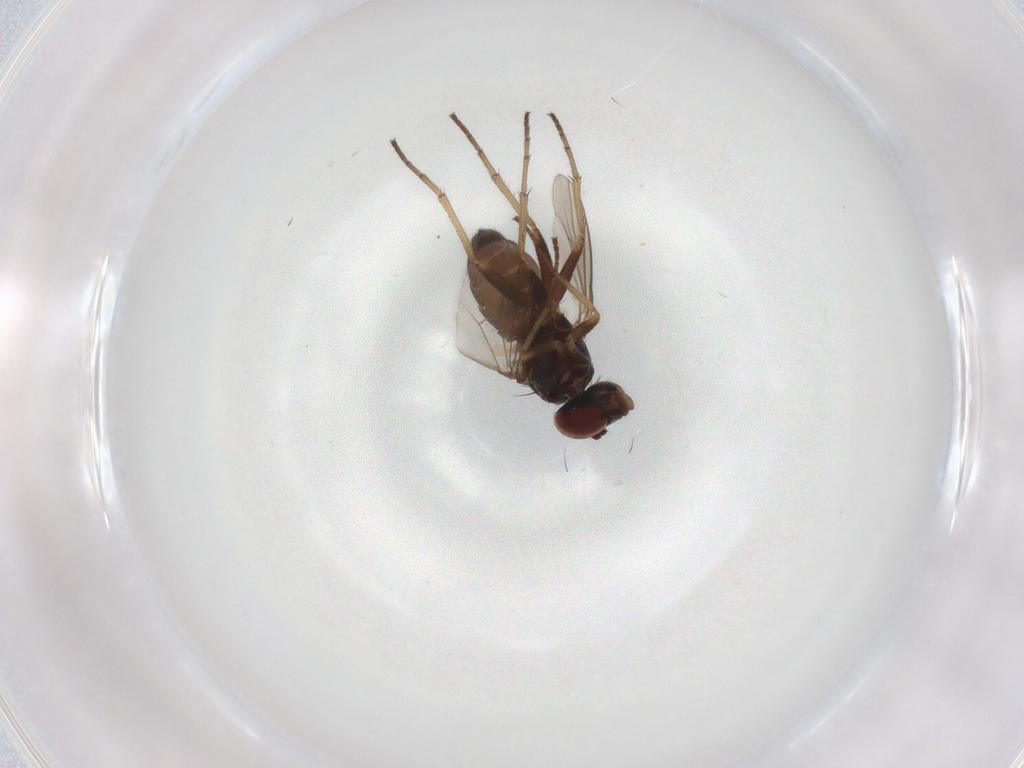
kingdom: Animalia
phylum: Arthropoda
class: Insecta
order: Diptera
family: Dolichopodidae
